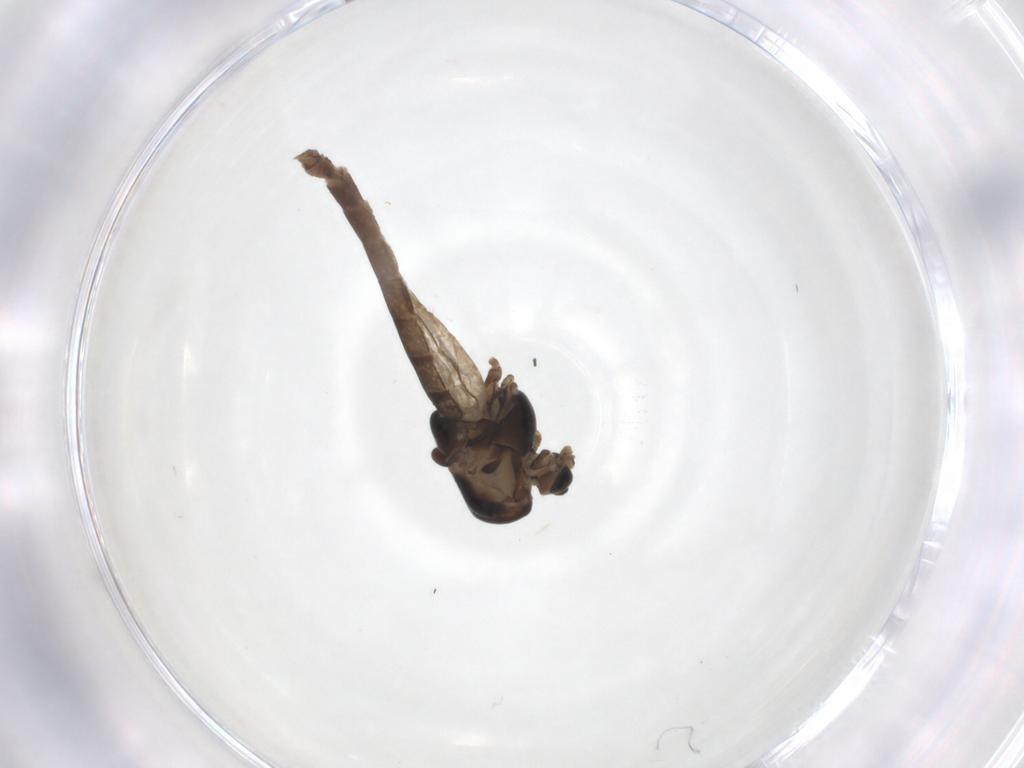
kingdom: Animalia
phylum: Arthropoda
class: Insecta
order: Diptera
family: Chironomidae
